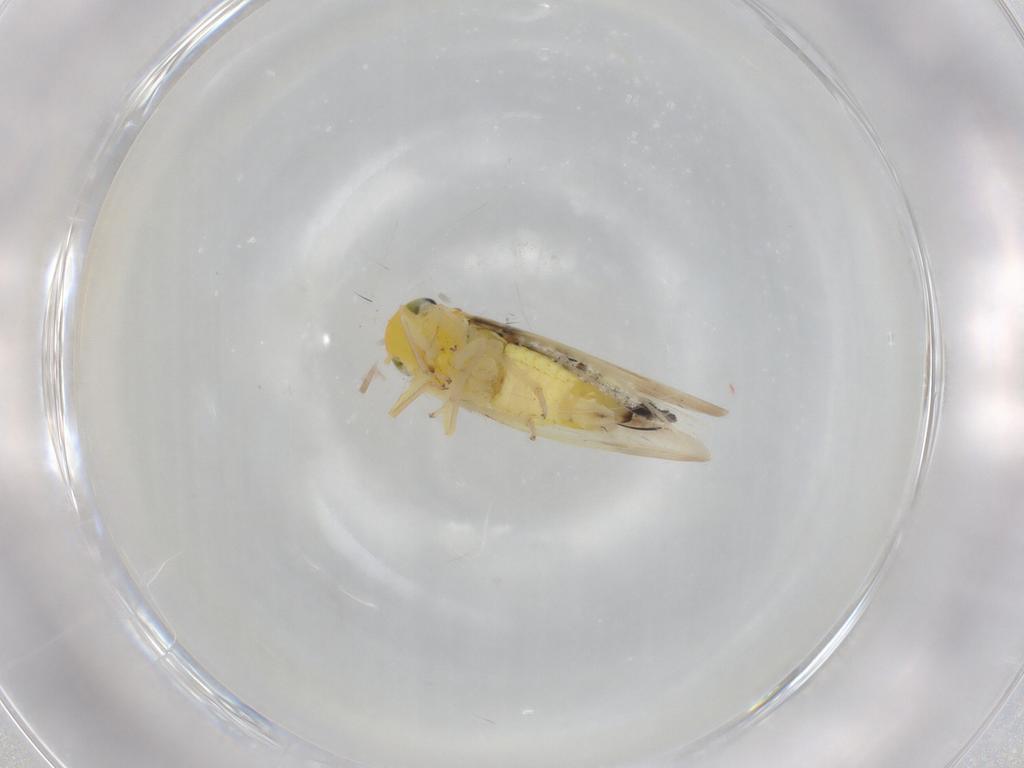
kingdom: Animalia
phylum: Arthropoda
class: Insecta
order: Hemiptera
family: Cicadellidae
